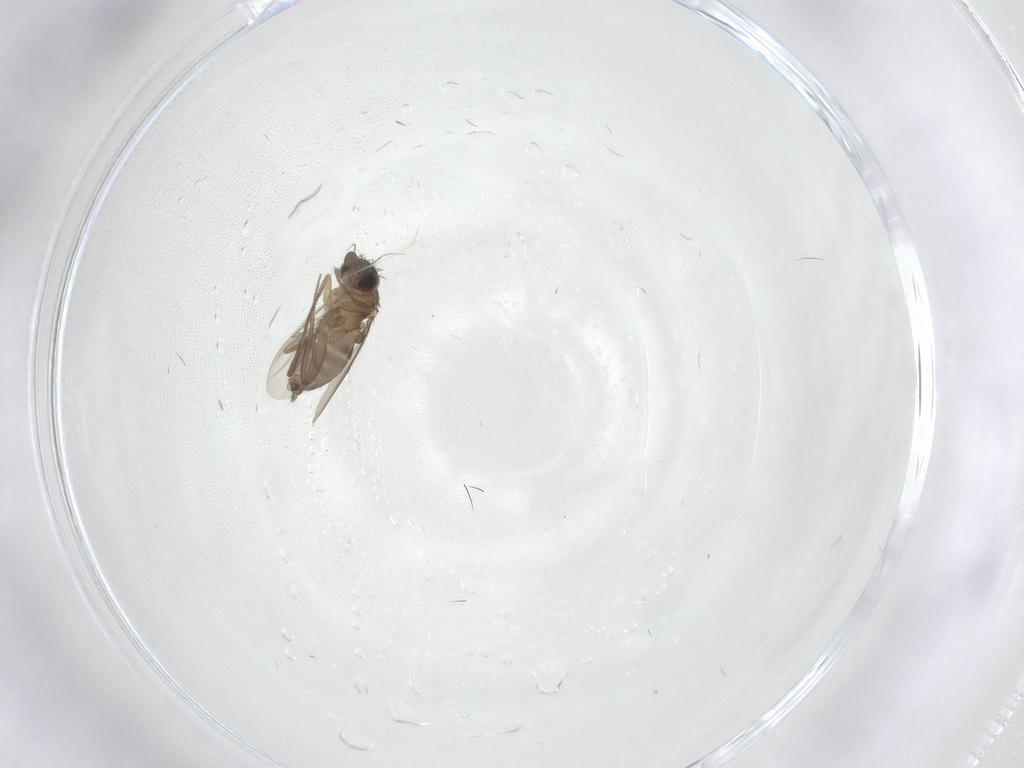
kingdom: Animalia
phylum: Arthropoda
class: Insecta
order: Diptera
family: Phoridae
